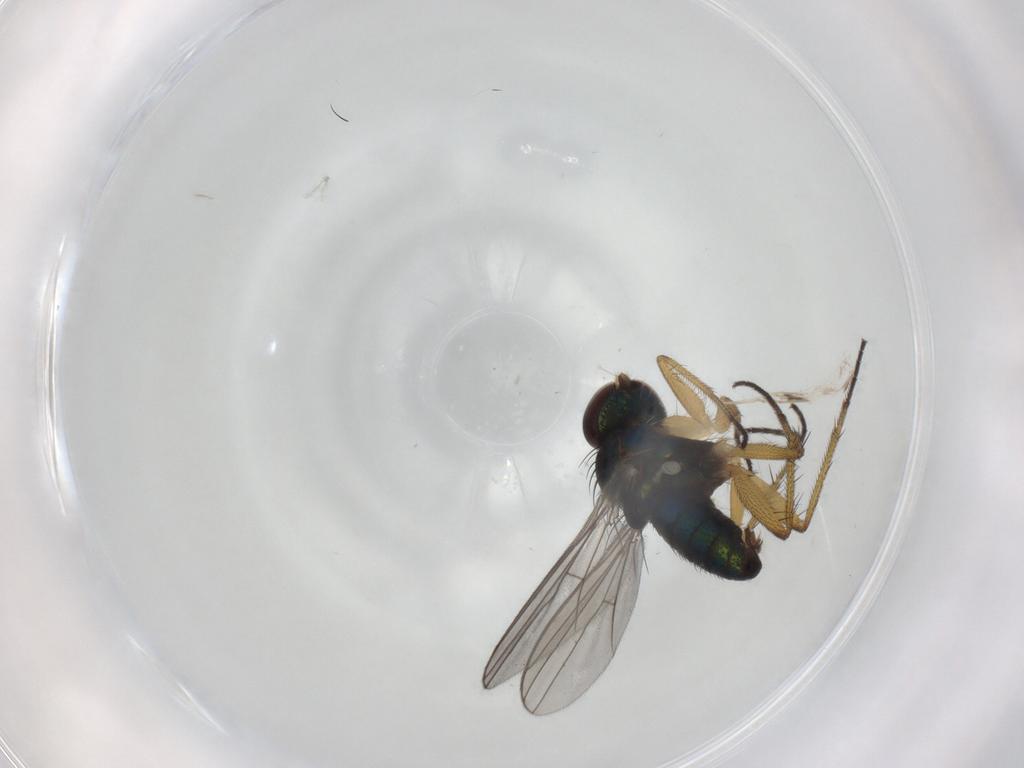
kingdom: Animalia
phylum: Arthropoda
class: Insecta
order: Diptera
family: Dolichopodidae
